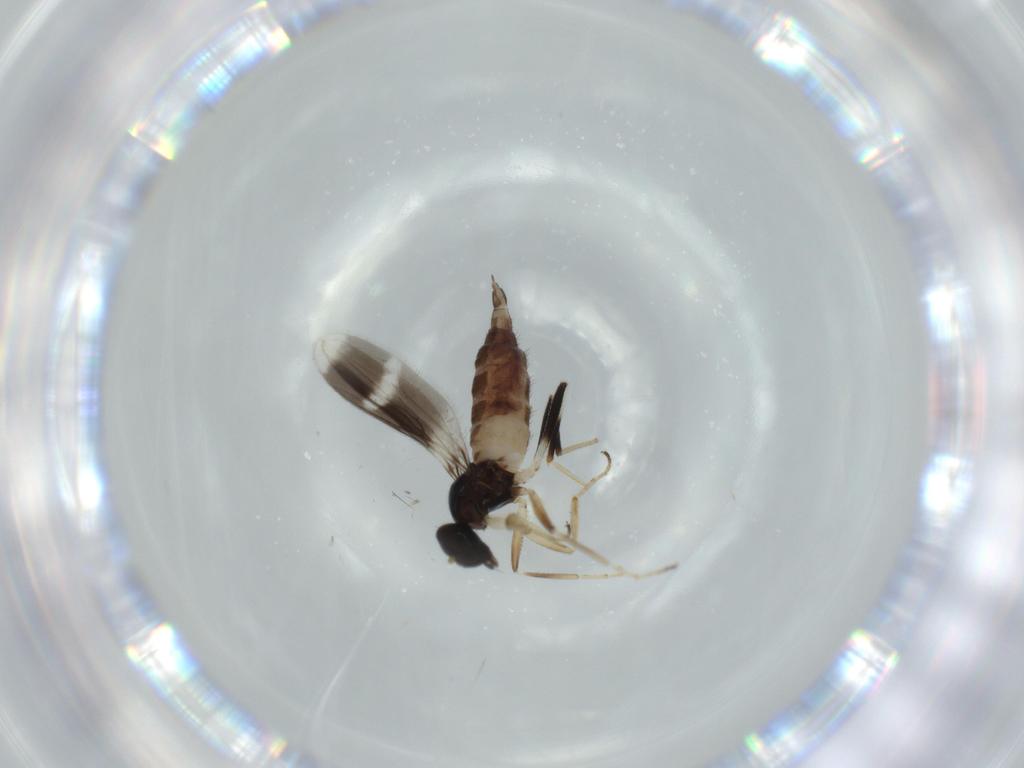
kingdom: Animalia
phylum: Arthropoda
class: Insecta
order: Diptera
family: Hybotidae
